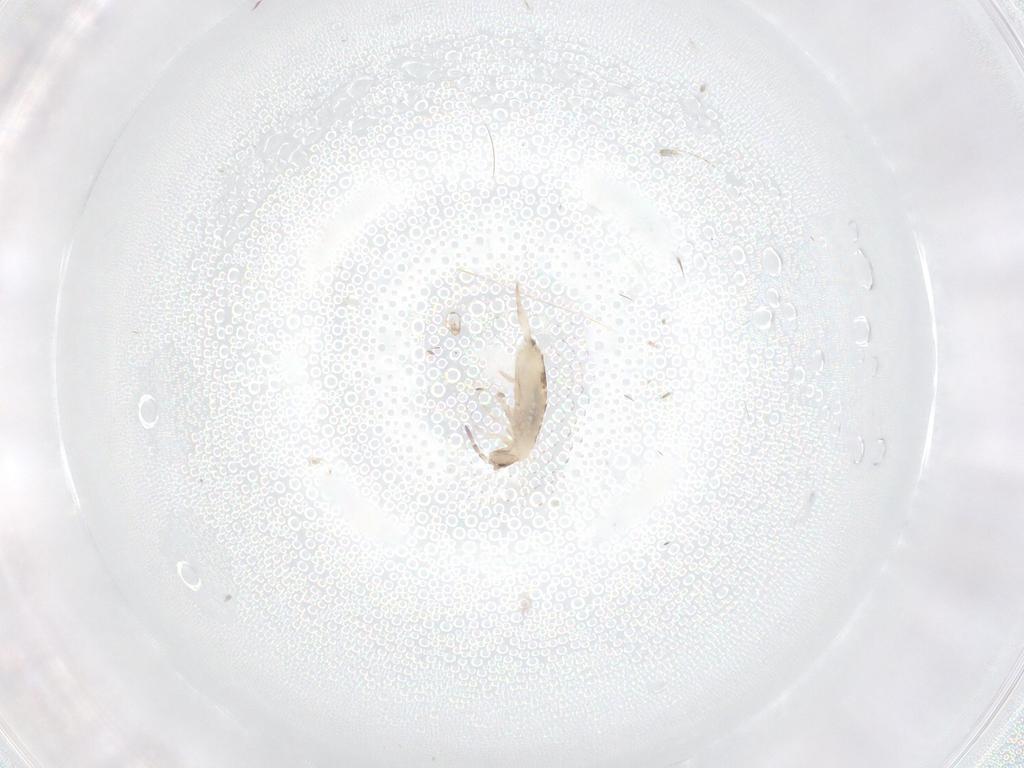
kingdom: Animalia
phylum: Arthropoda
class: Collembola
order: Entomobryomorpha
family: Entomobryidae
